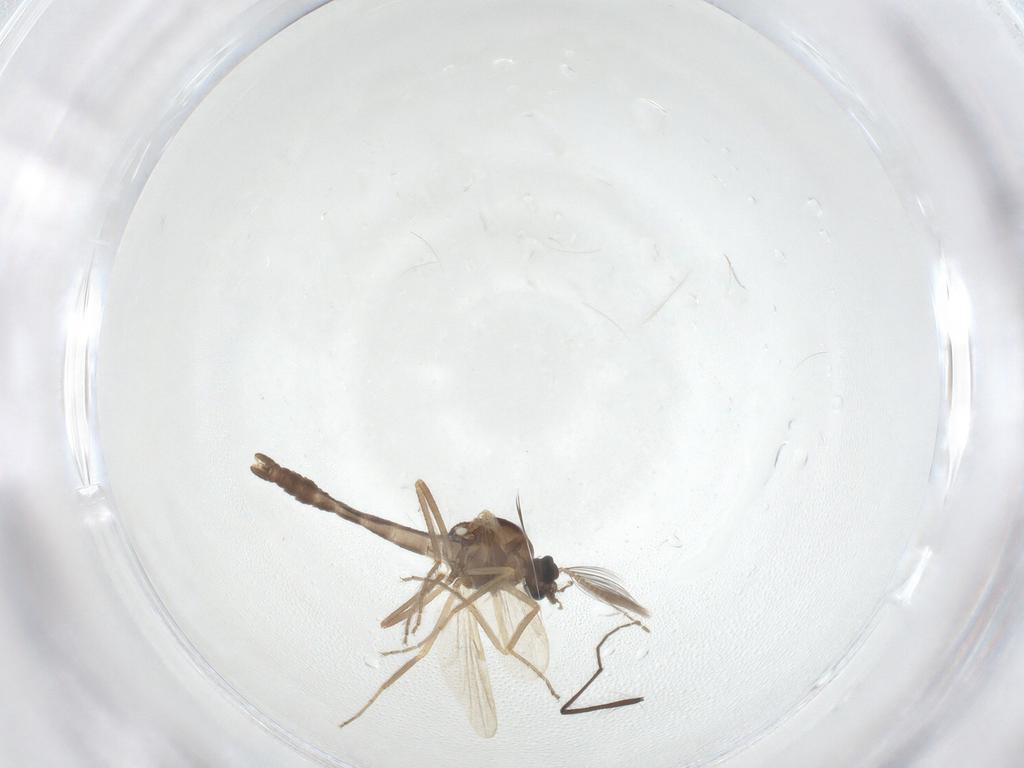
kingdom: Animalia
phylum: Arthropoda
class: Insecta
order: Diptera
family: Ceratopogonidae
